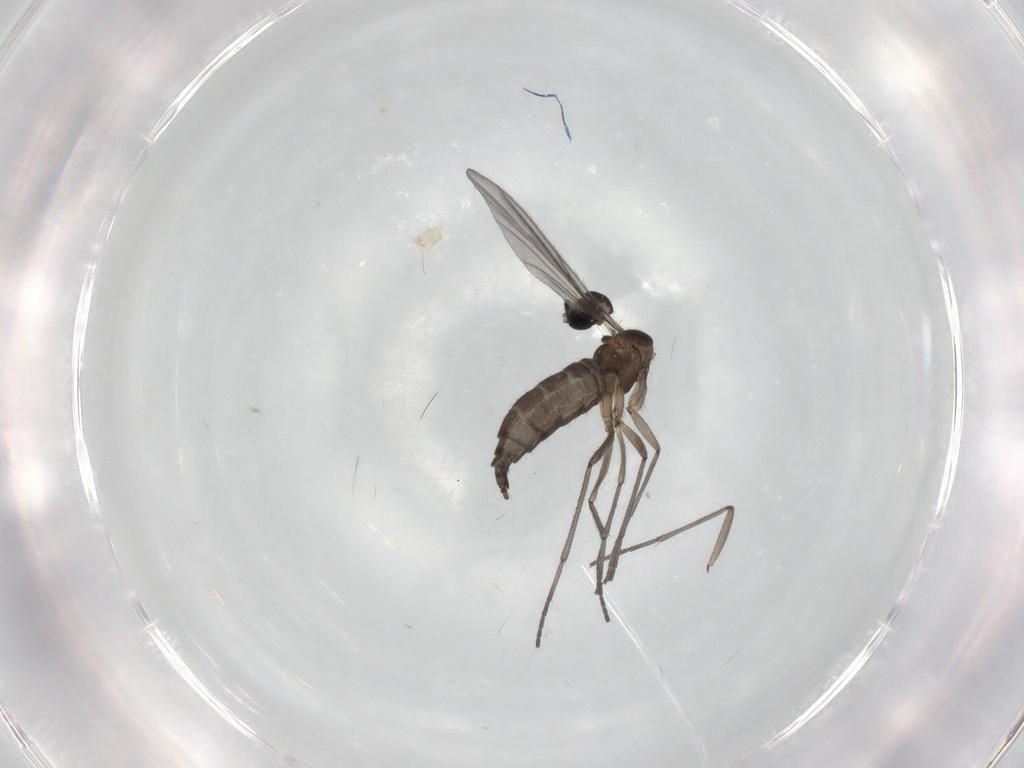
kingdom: Animalia
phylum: Arthropoda
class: Insecta
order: Diptera
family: Sciaridae
